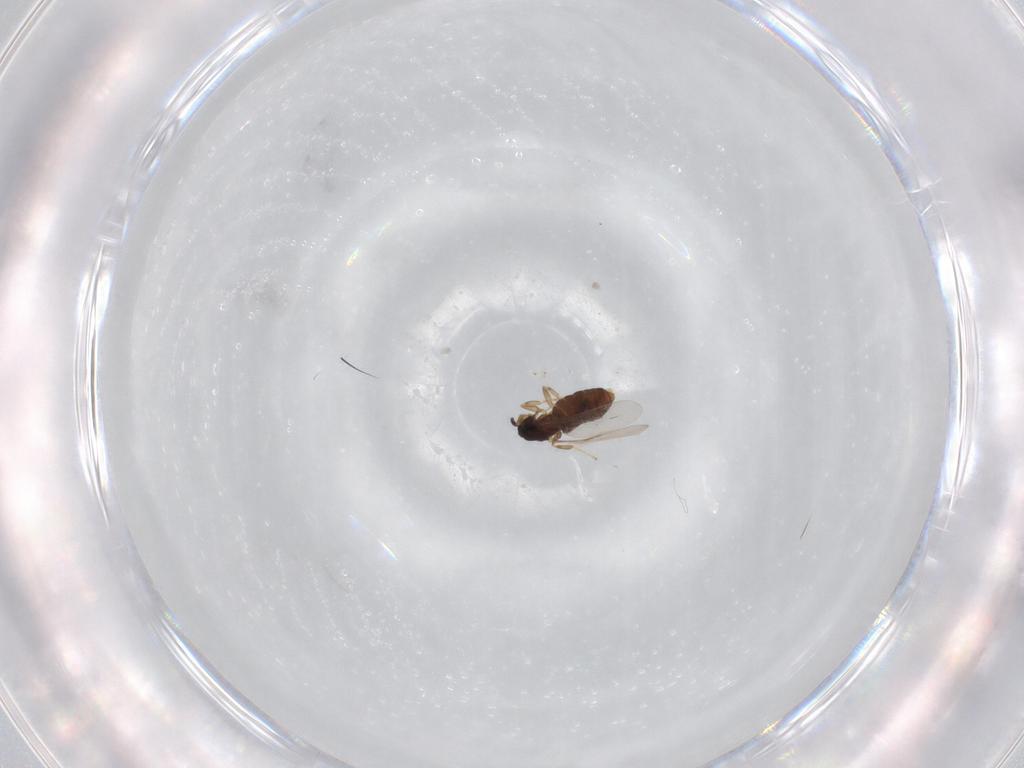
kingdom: Animalia
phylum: Arthropoda
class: Insecta
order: Diptera
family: Scatopsidae
